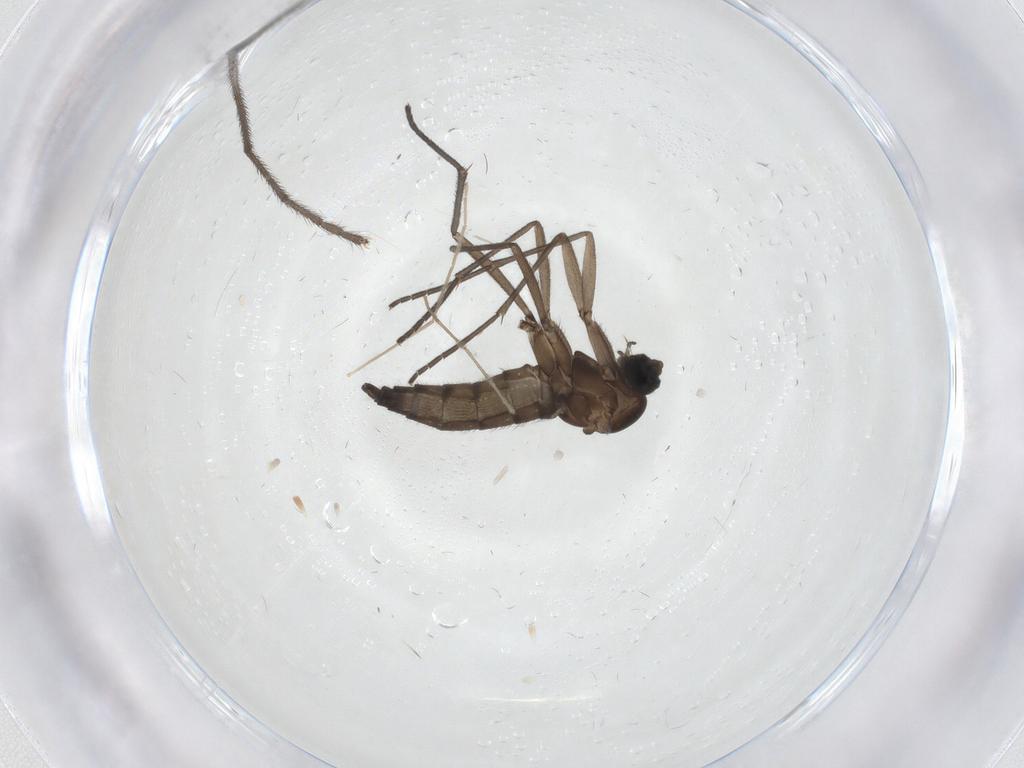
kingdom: Animalia
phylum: Arthropoda
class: Insecta
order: Diptera
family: Sciaridae
